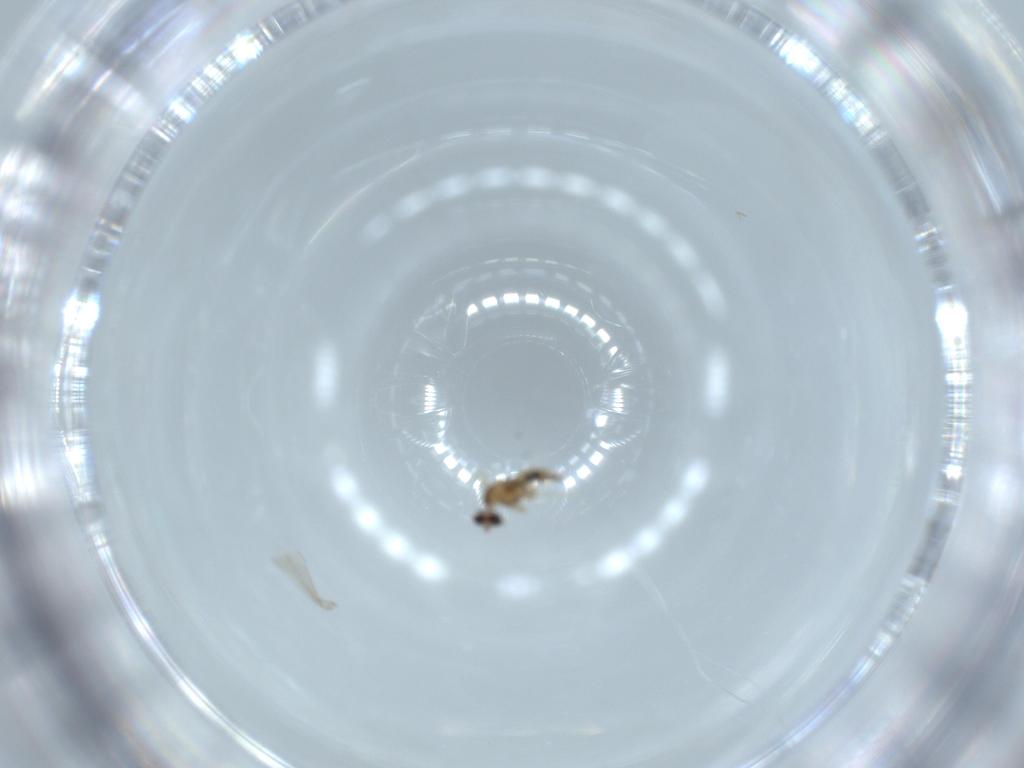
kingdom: Animalia
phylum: Arthropoda
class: Insecta
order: Diptera
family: Cecidomyiidae
